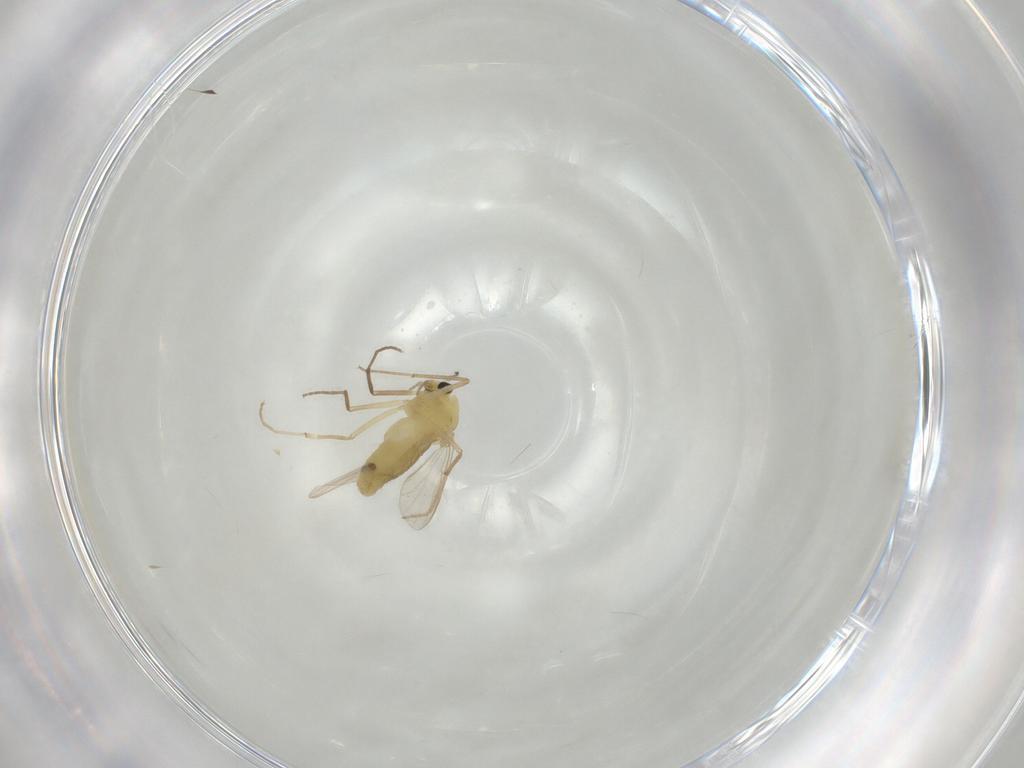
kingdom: Animalia
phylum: Arthropoda
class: Insecta
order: Diptera
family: Chironomidae
